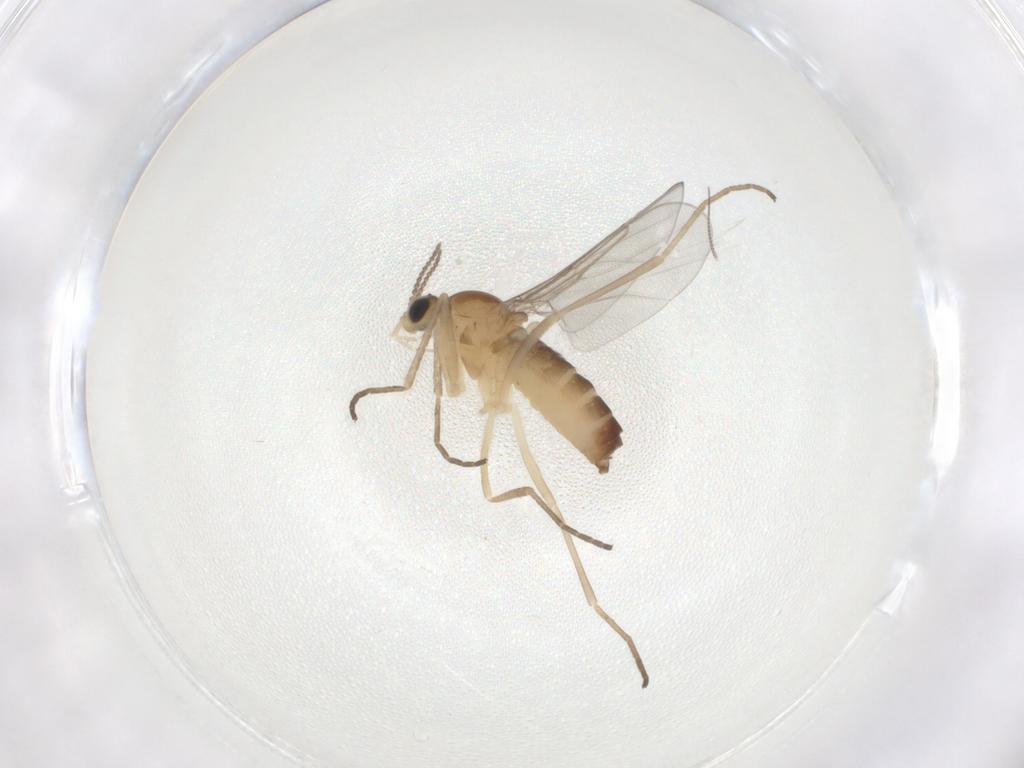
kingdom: Animalia
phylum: Arthropoda
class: Insecta
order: Diptera
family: Cecidomyiidae
